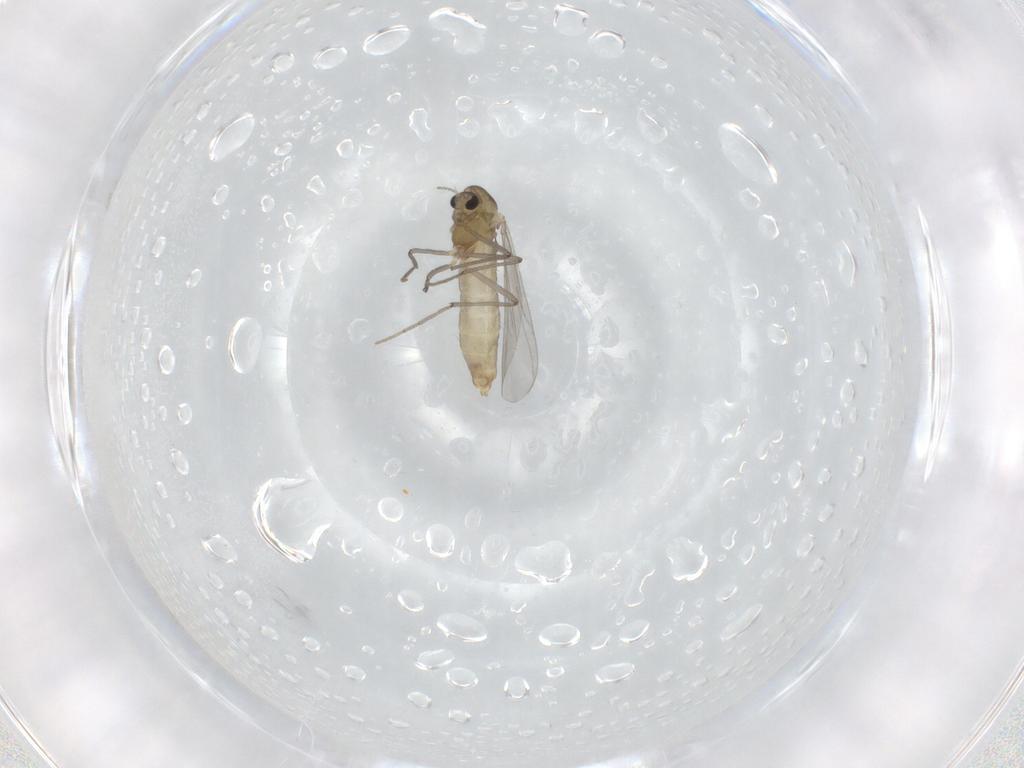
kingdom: Animalia
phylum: Arthropoda
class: Insecta
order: Diptera
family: Chironomidae
